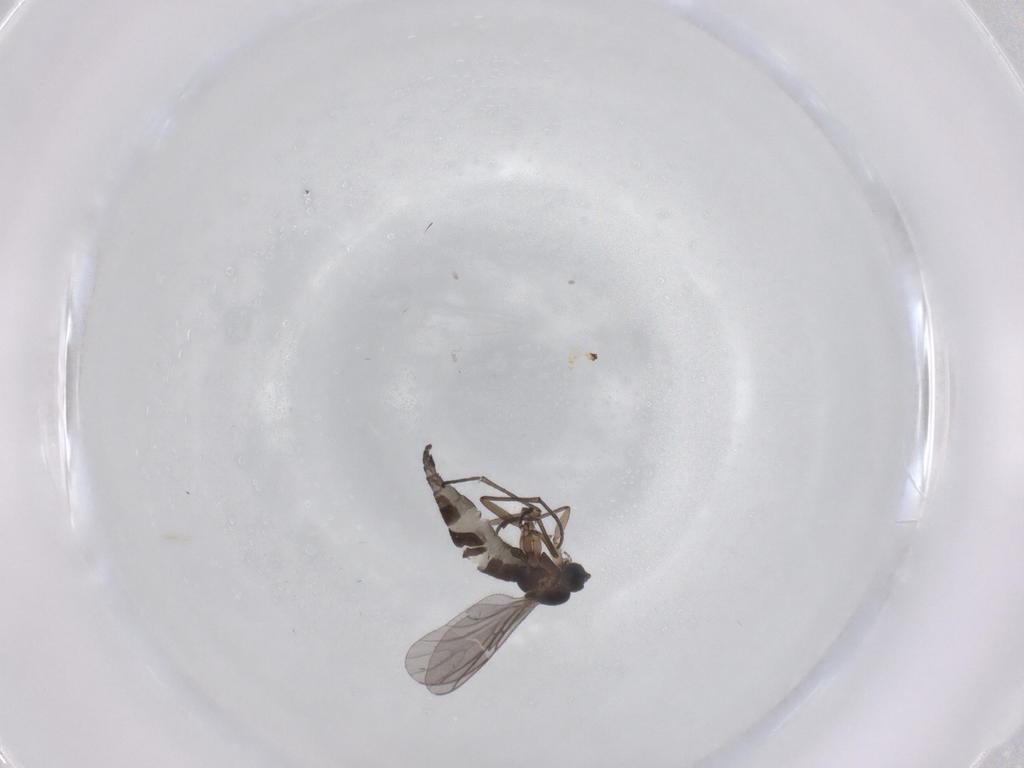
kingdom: Animalia
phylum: Arthropoda
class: Insecta
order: Diptera
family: Sciaridae
